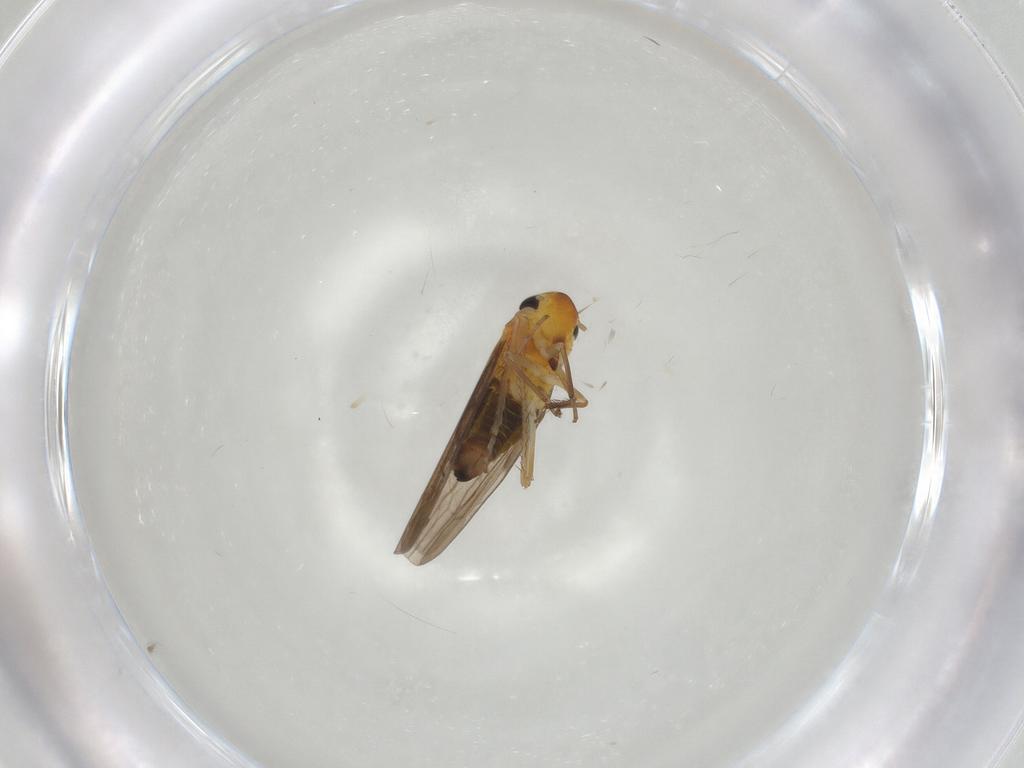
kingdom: Animalia
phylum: Arthropoda
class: Insecta
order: Hemiptera
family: Cicadellidae
